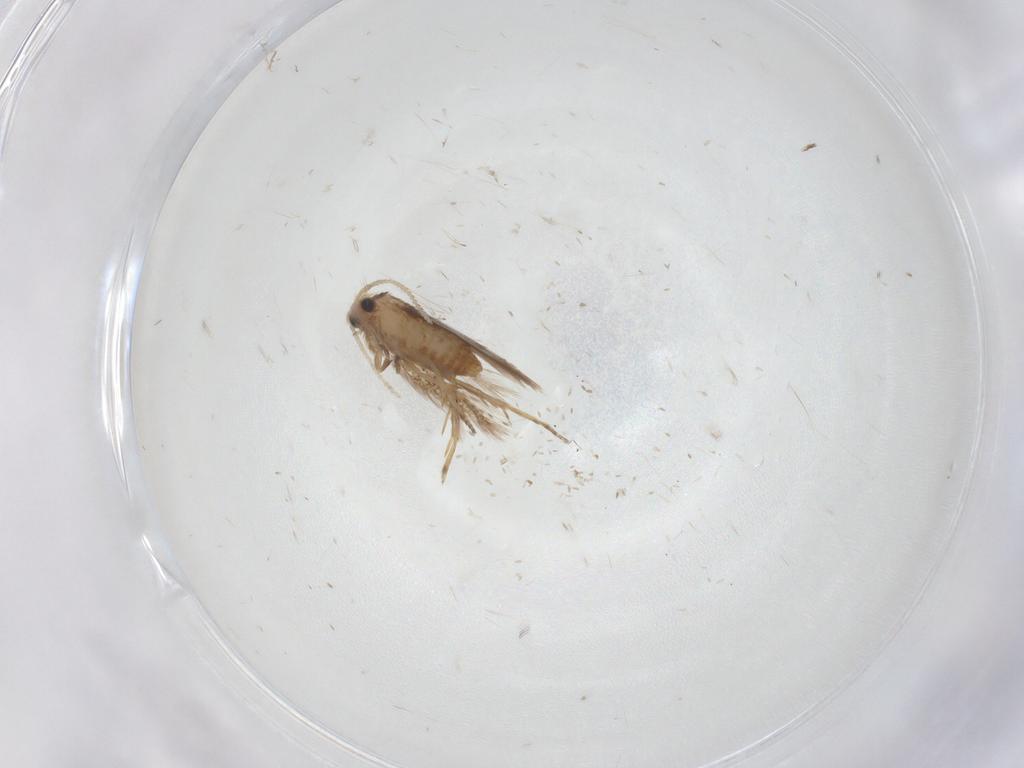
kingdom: Animalia
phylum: Arthropoda
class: Insecta
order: Lepidoptera
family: Nepticulidae
